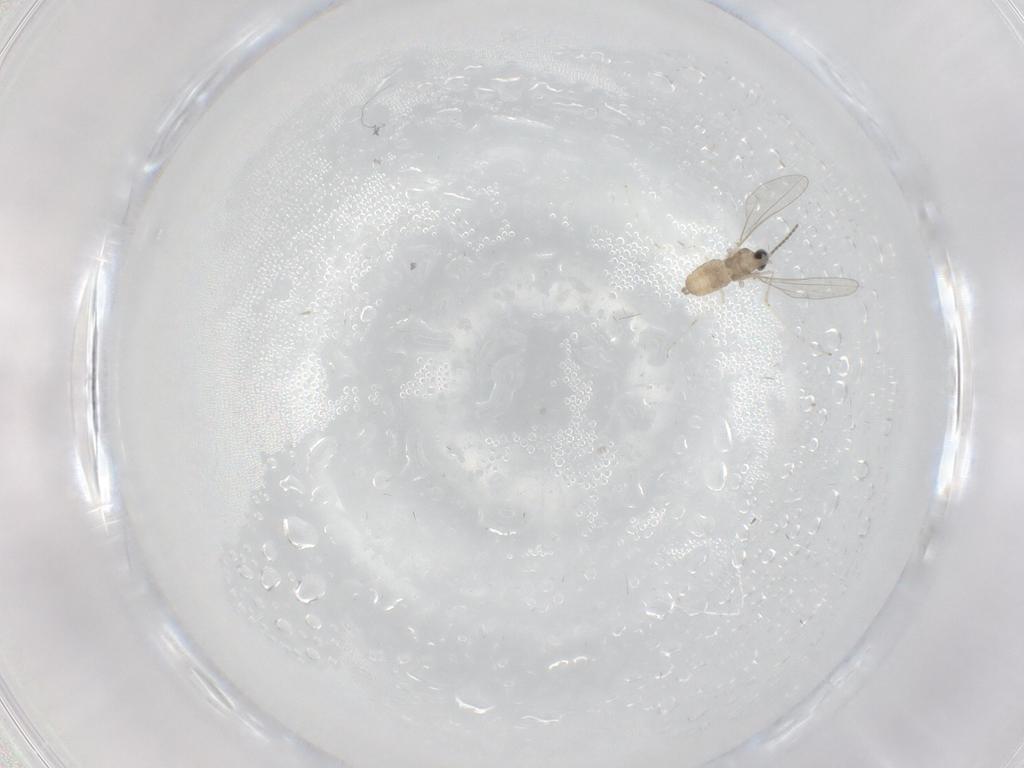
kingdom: Animalia
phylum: Arthropoda
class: Insecta
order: Diptera
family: Cecidomyiidae
